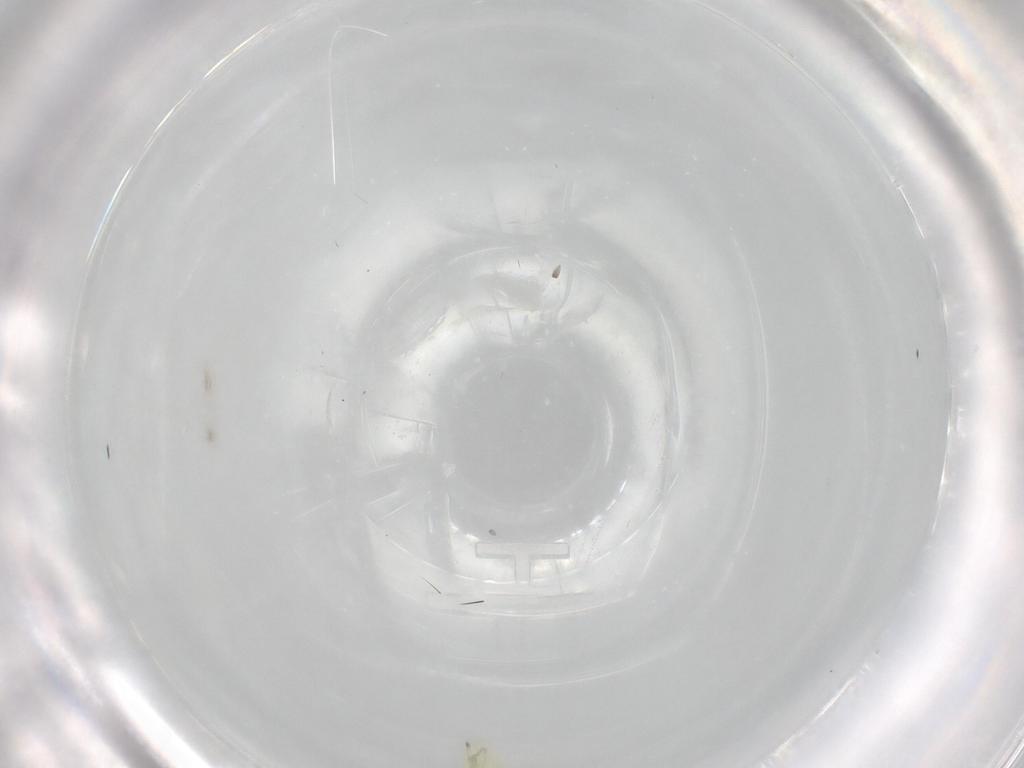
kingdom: Animalia
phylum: Arthropoda
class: Insecta
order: Hemiptera
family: Cicadellidae
